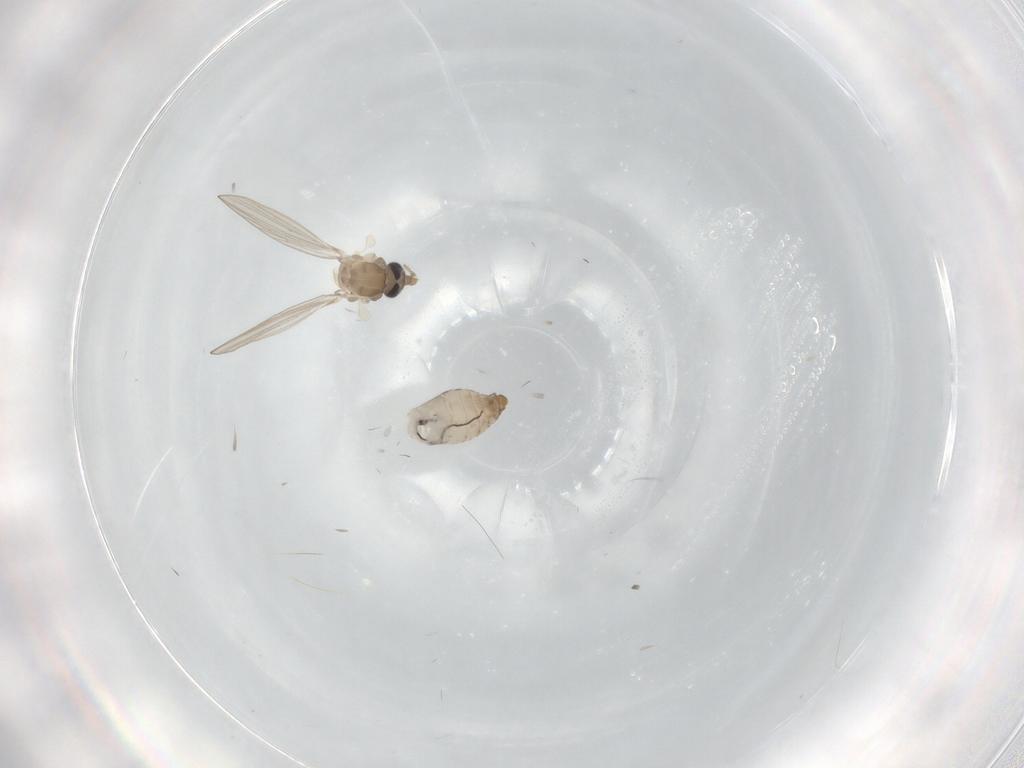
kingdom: Animalia
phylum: Arthropoda
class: Insecta
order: Diptera
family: Psychodidae
